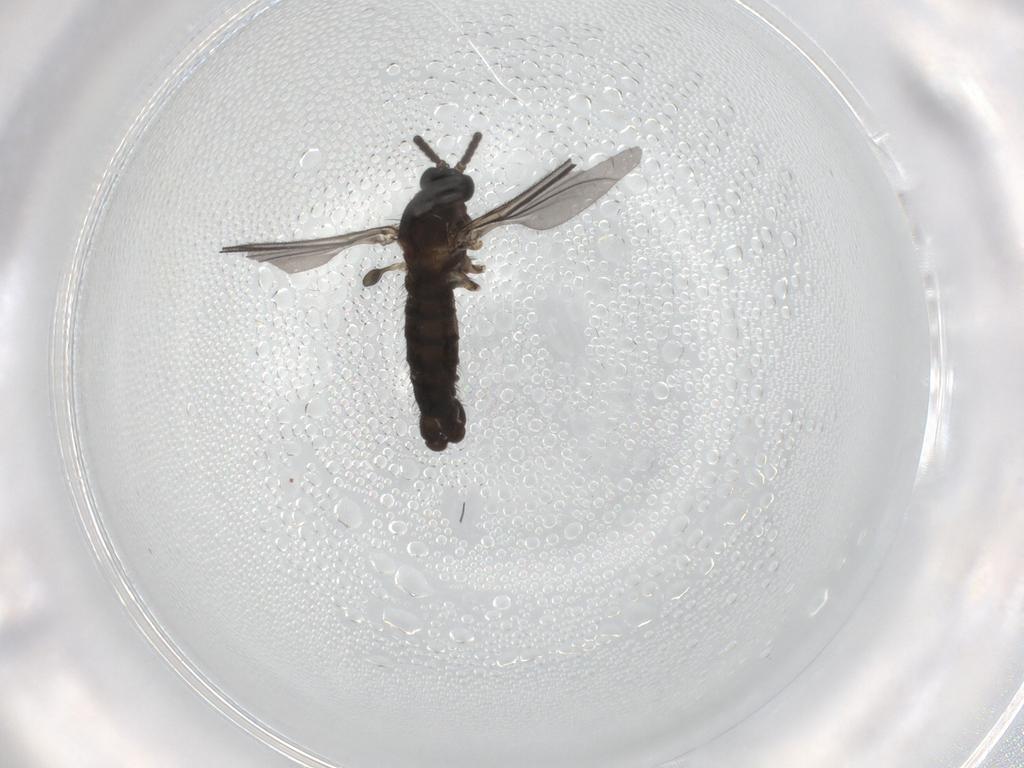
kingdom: Animalia
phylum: Arthropoda
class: Insecta
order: Diptera
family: Sciaridae
